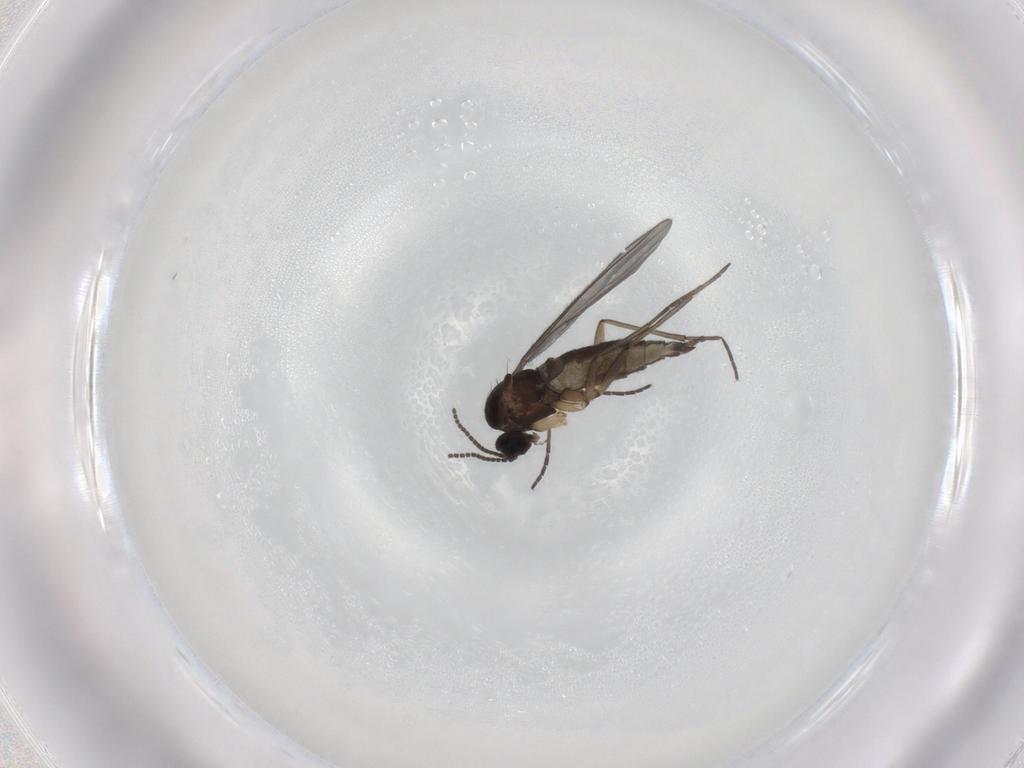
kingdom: Animalia
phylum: Arthropoda
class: Insecta
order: Diptera
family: Sciaridae
